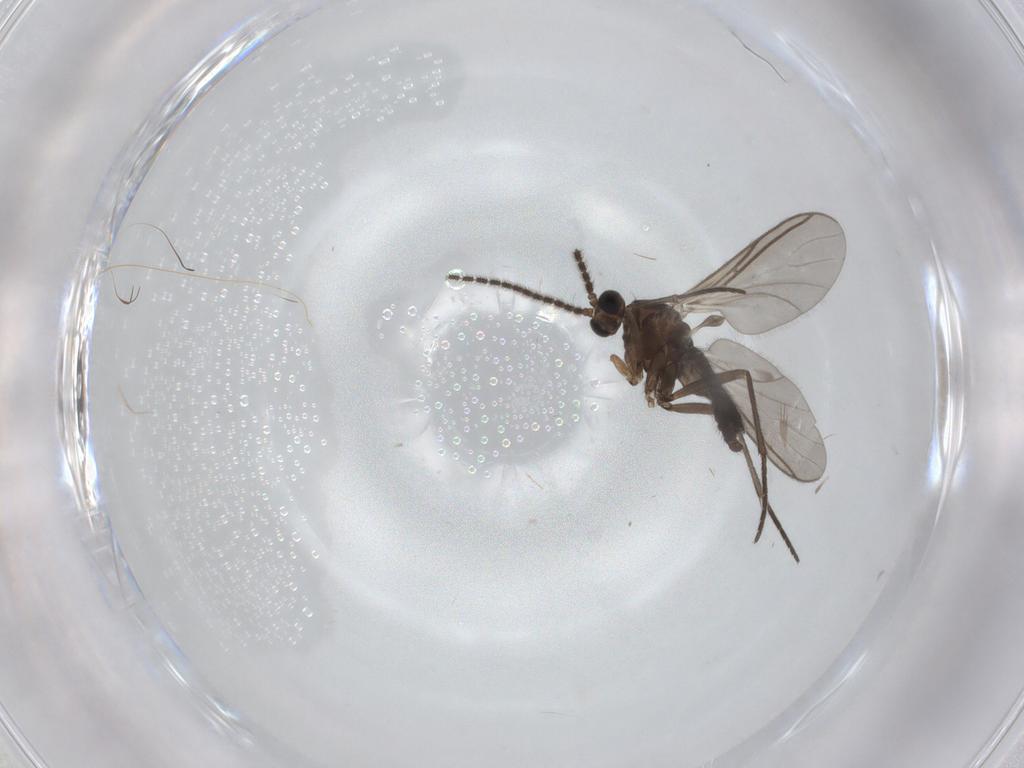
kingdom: Animalia
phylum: Arthropoda
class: Insecta
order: Diptera
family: Sciaridae
